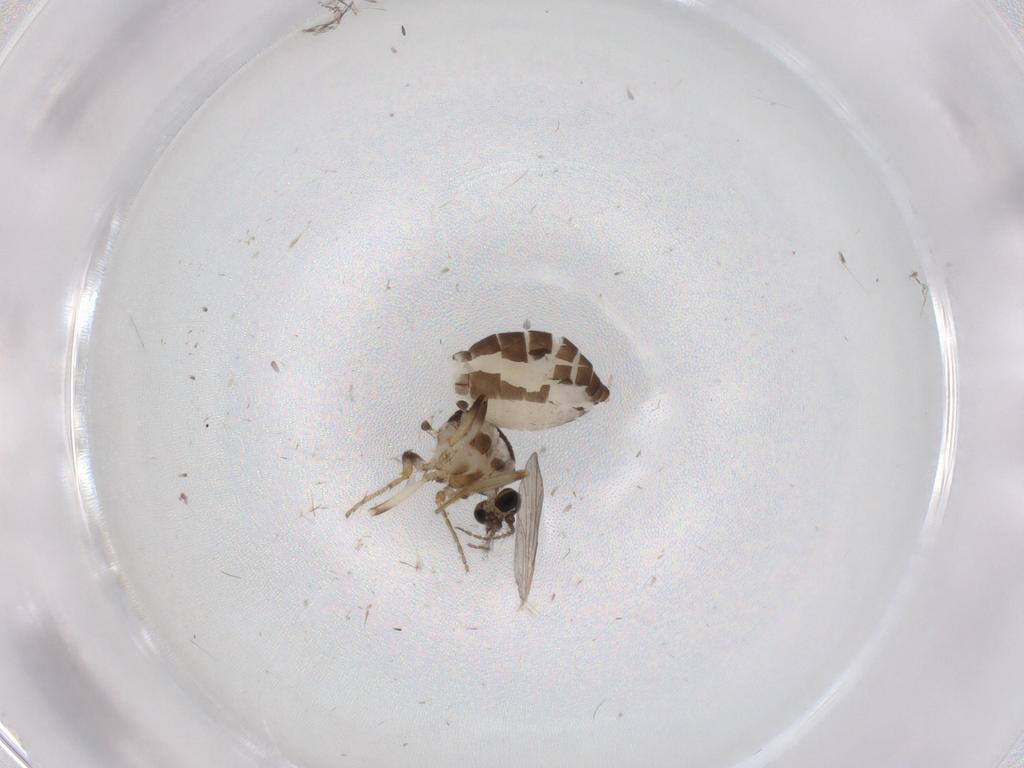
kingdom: Animalia
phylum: Arthropoda
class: Insecta
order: Diptera
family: Ceratopogonidae
